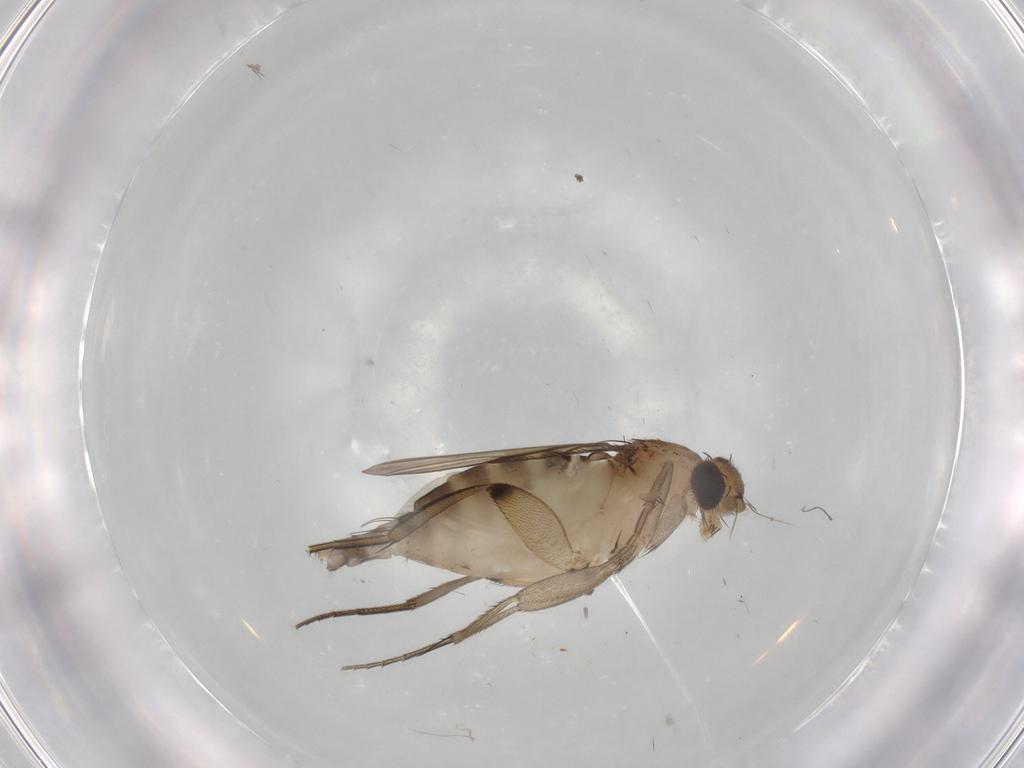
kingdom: Animalia
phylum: Arthropoda
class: Insecta
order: Diptera
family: Phoridae
